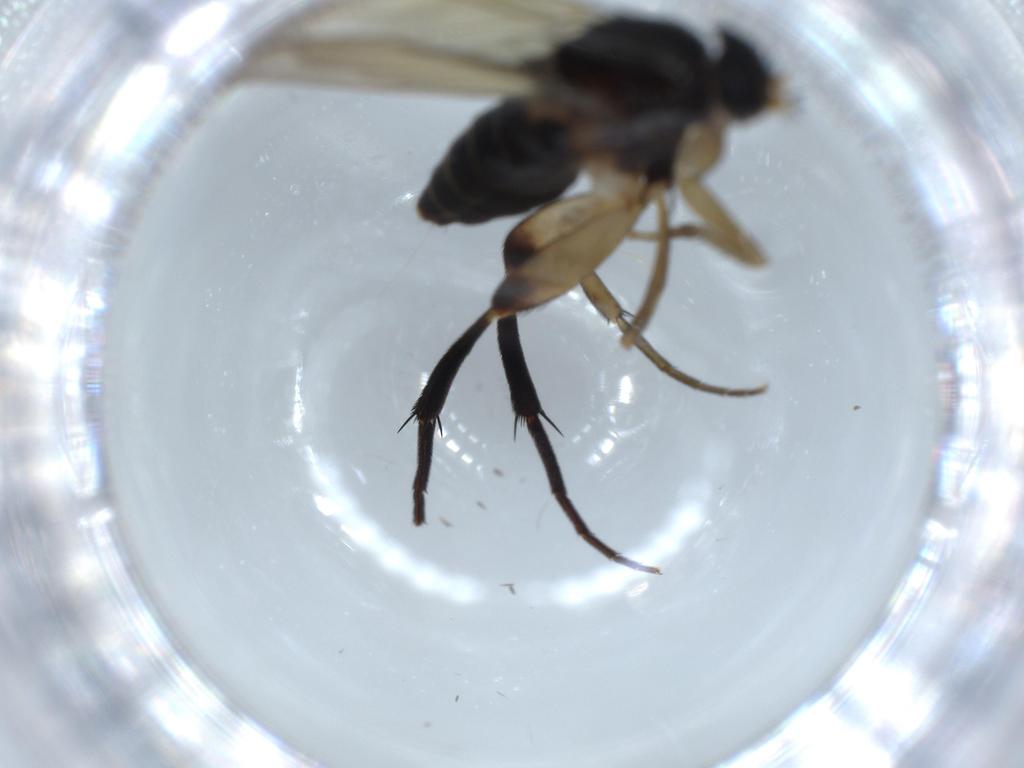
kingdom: Animalia
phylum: Arthropoda
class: Insecta
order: Diptera
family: Phoridae
